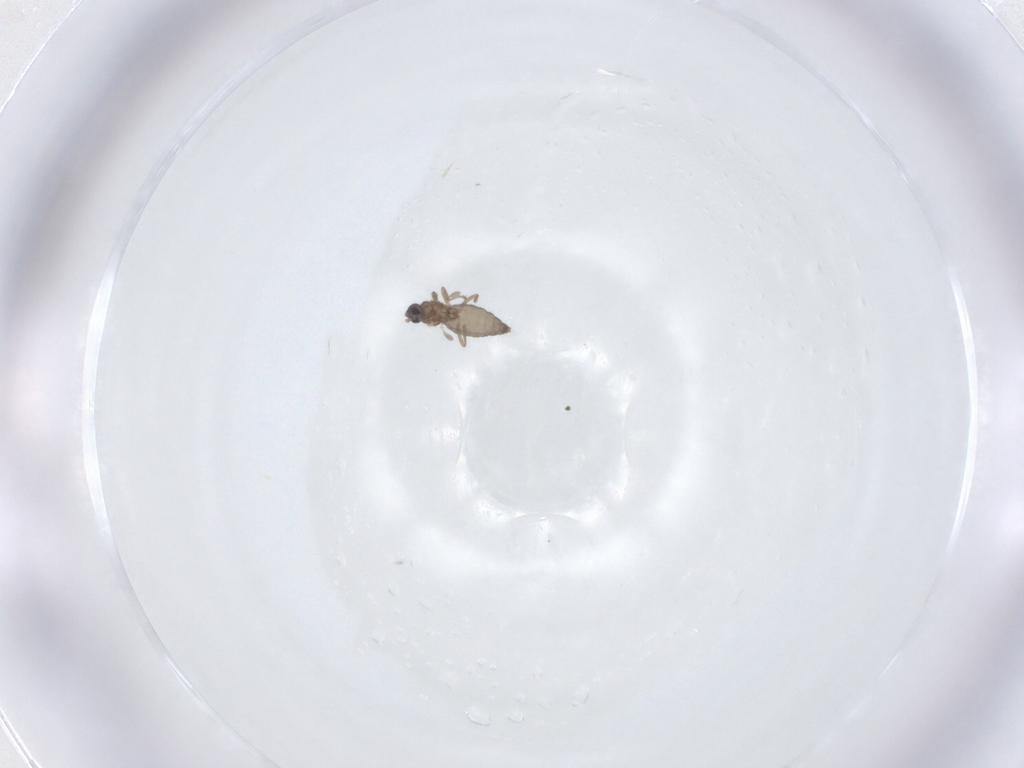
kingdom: Animalia
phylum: Arthropoda
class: Insecta
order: Diptera
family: Cecidomyiidae
